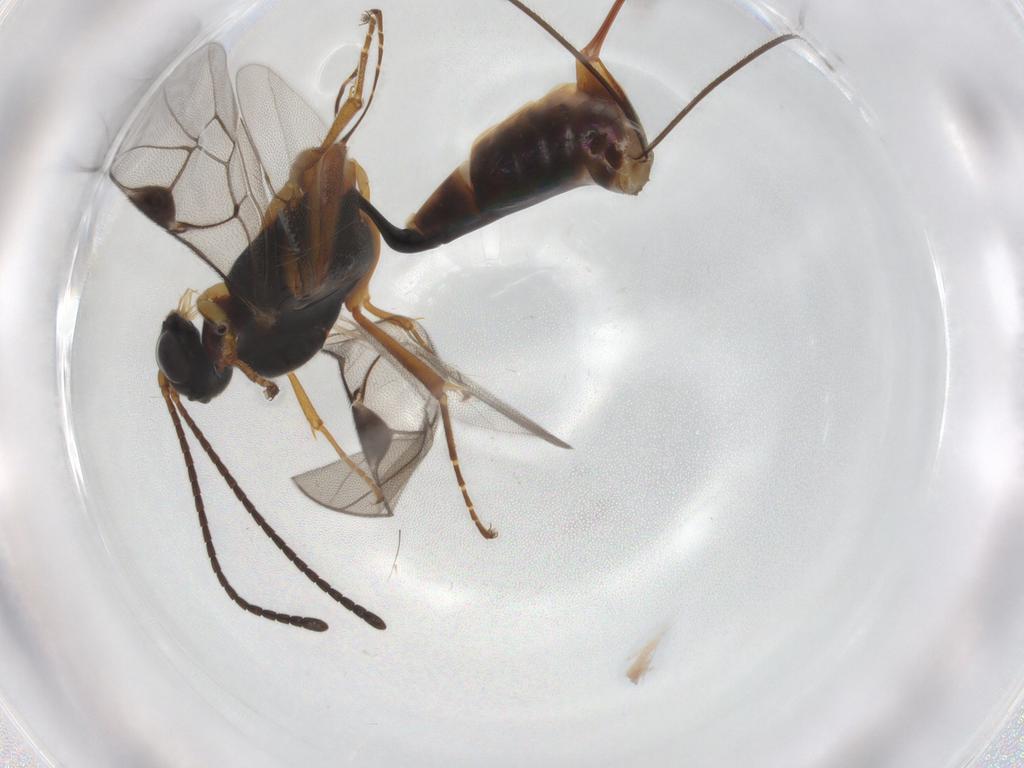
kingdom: Animalia
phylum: Arthropoda
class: Insecta
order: Hymenoptera
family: Ichneumonidae
